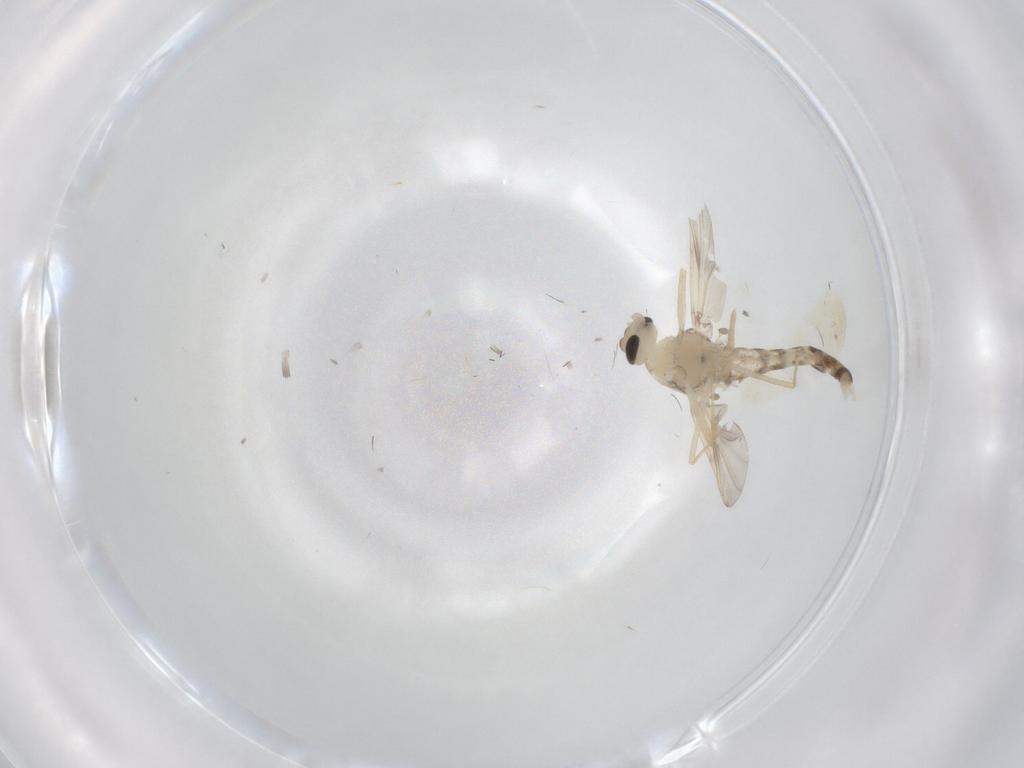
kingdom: Animalia
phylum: Arthropoda
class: Insecta
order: Diptera
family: Chironomidae
